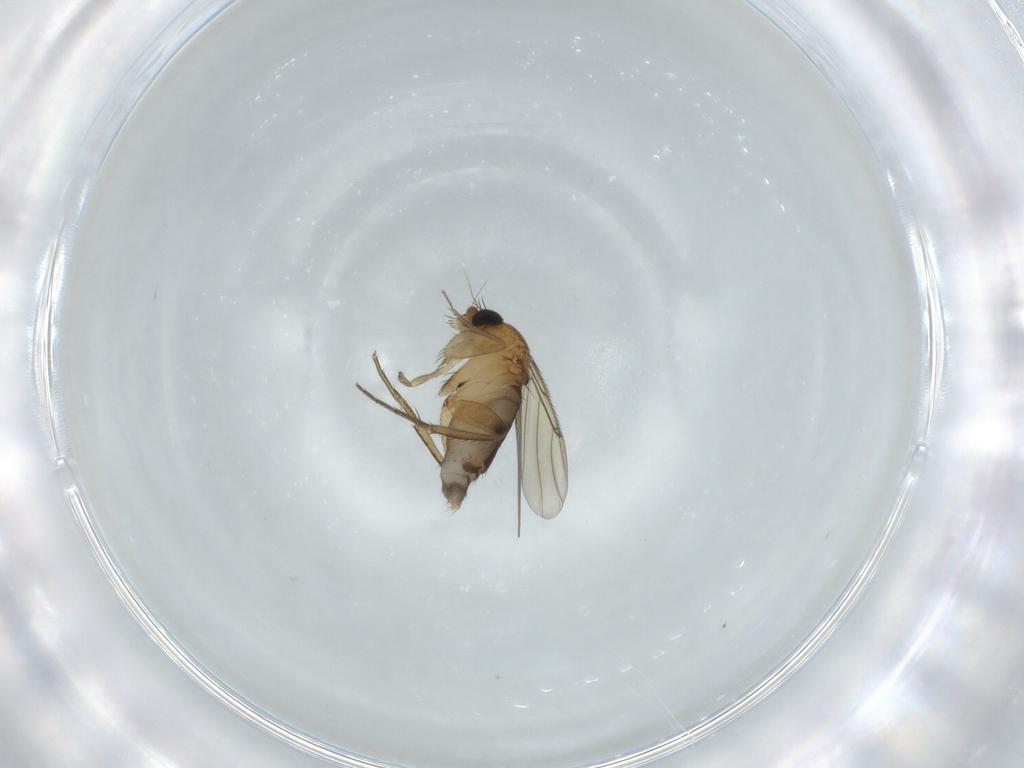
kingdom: Animalia
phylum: Arthropoda
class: Insecta
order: Diptera
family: Phoridae
